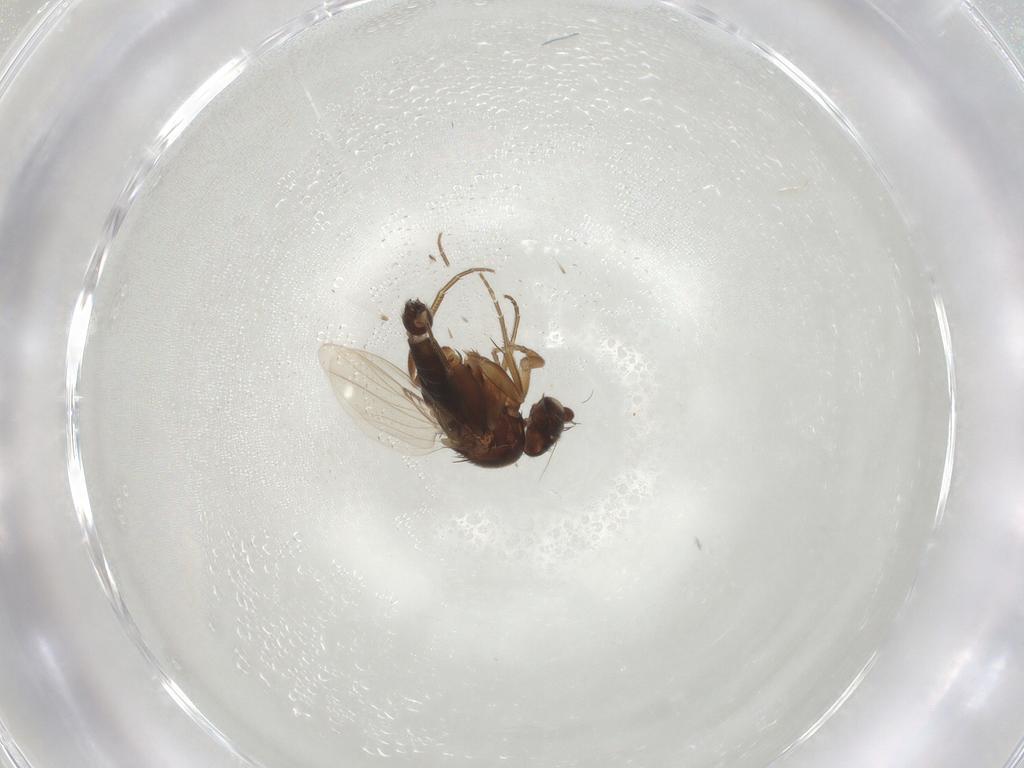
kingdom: Animalia
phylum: Arthropoda
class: Insecta
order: Diptera
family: Phoridae
